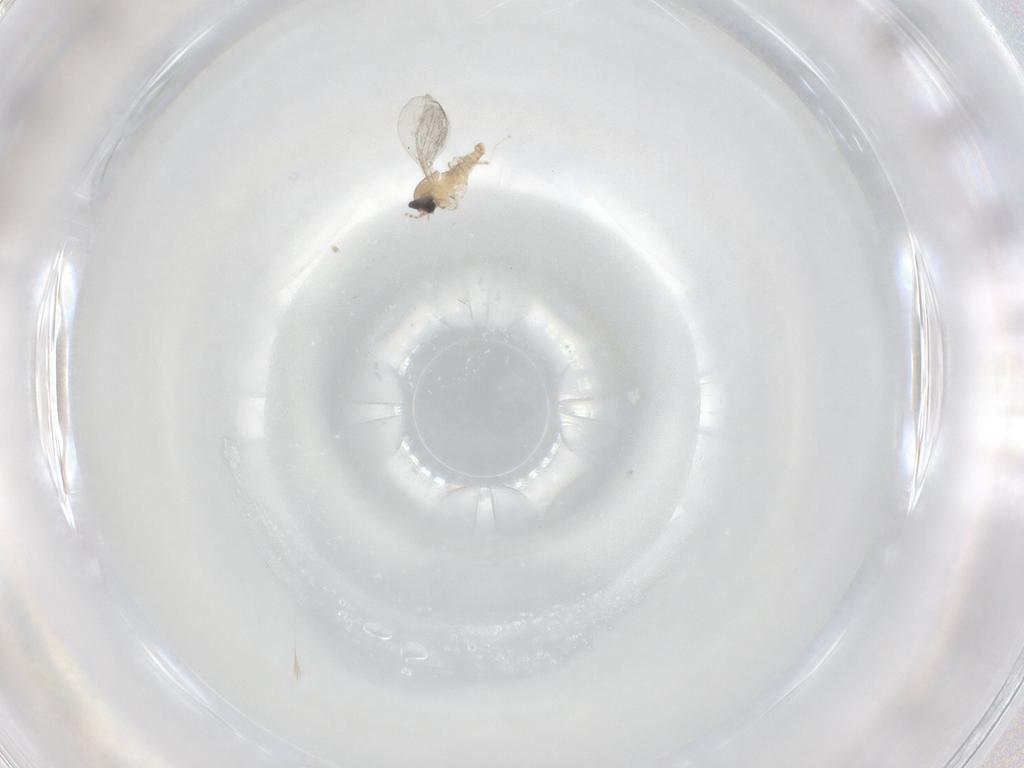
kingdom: Animalia
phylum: Arthropoda
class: Insecta
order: Diptera
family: Cecidomyiidae
